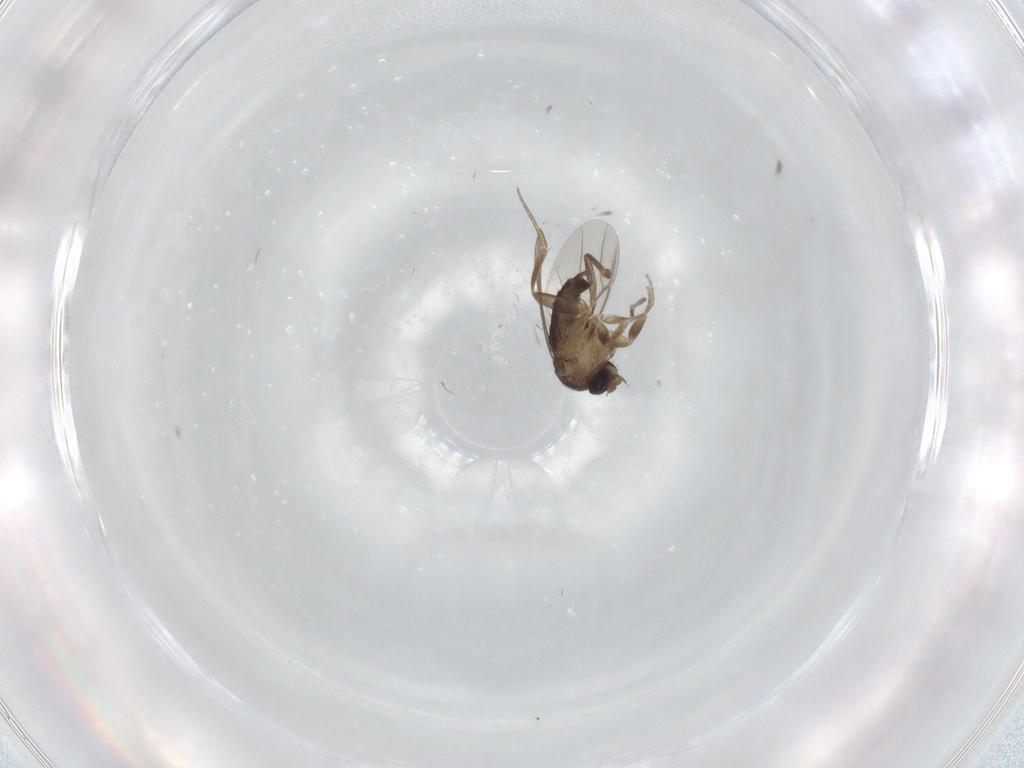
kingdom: Animalia
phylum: Arthropoda
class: Insecta
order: Diptera
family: Phoridae
